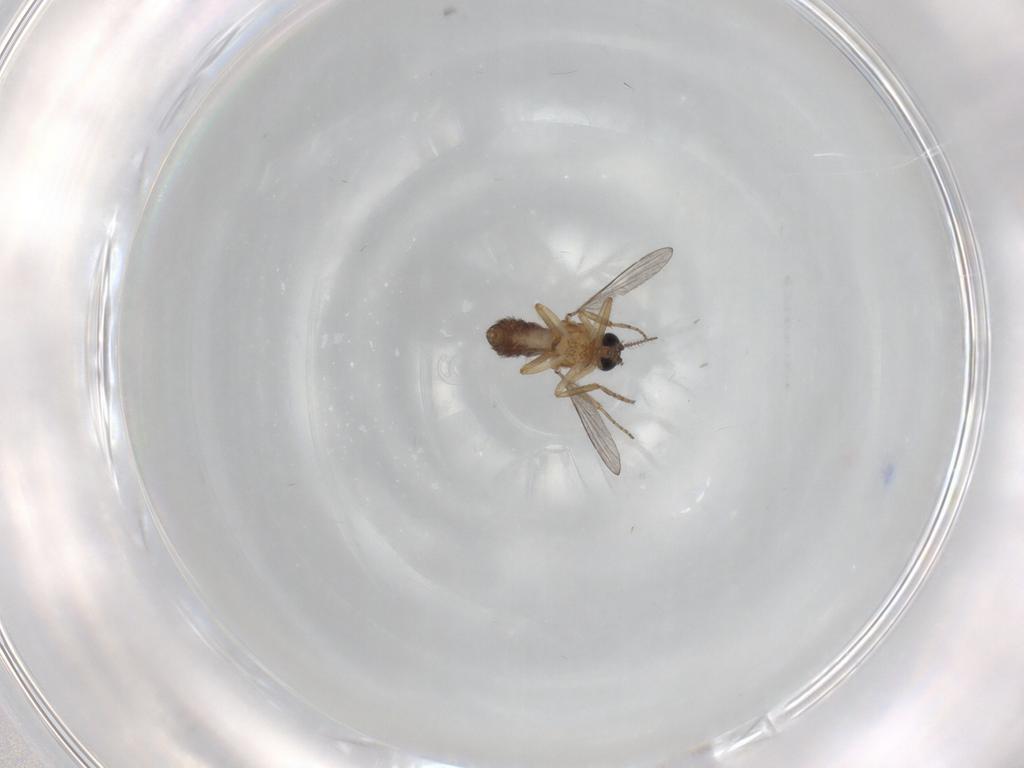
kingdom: Animalia
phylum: Arthropoda
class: Insecta
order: Diptera
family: Ceratopogonidae
